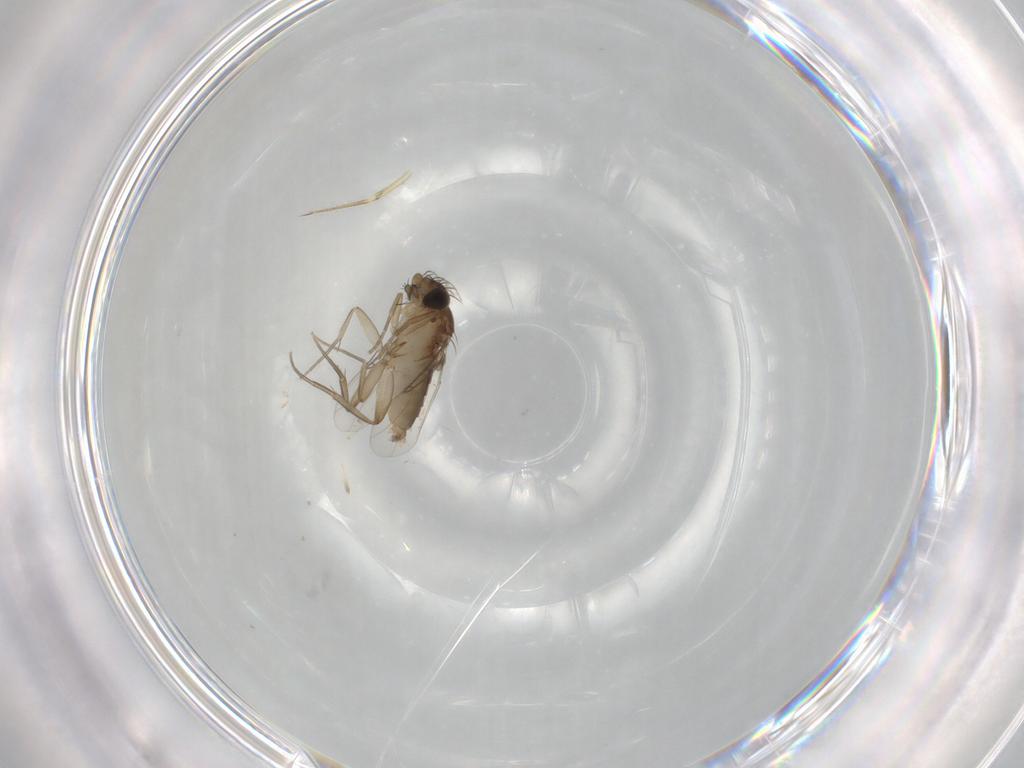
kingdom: Animalia
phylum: Arthropoda
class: Insecta
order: Diptera
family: Phoridae
